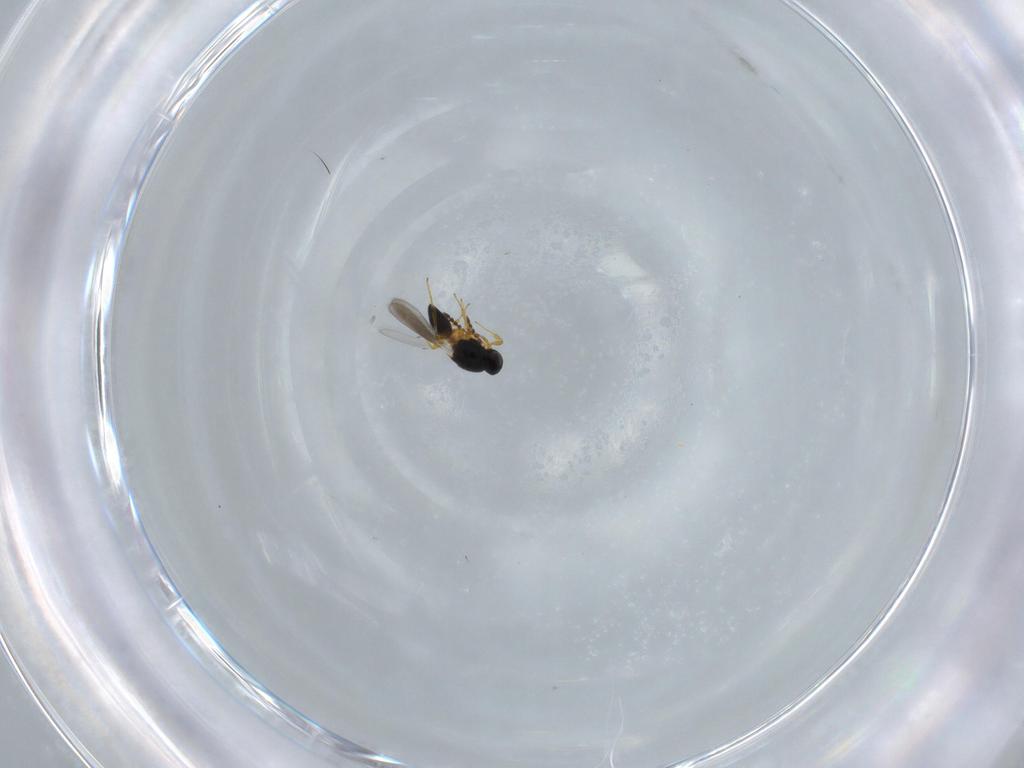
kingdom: Animalia
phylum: Arthropoda
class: Insecta
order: Hymenoptera
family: Platygastridae
